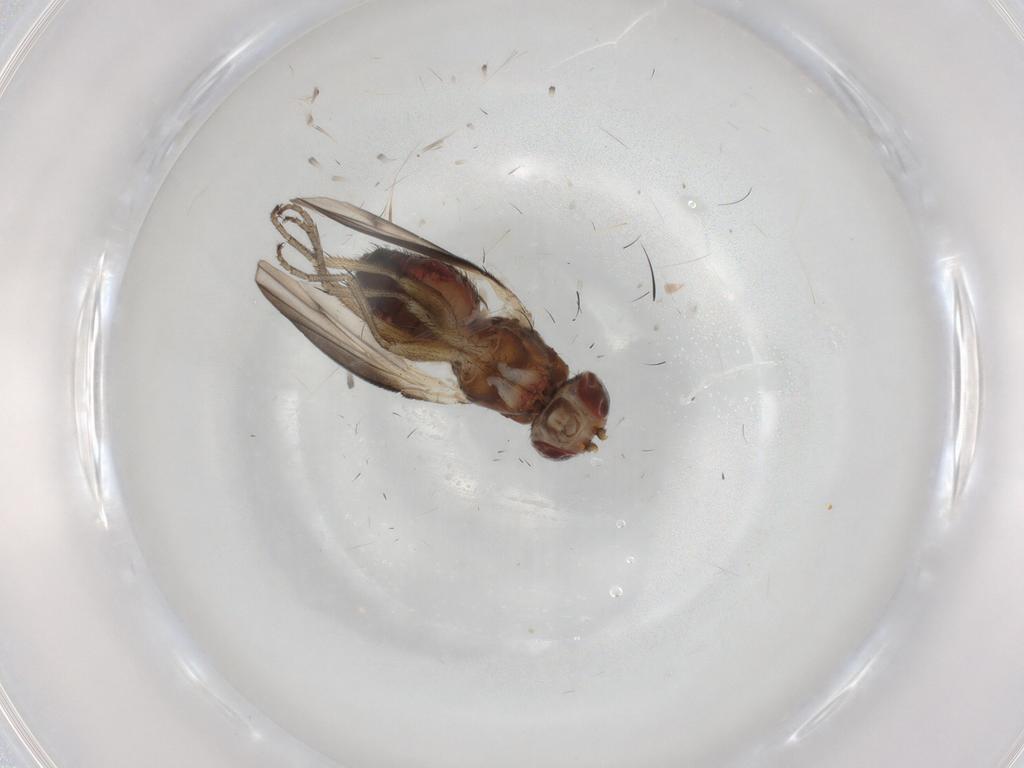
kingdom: Animalia
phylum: Arthropoda
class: Insecta
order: Diptera
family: Heleomyzidae
